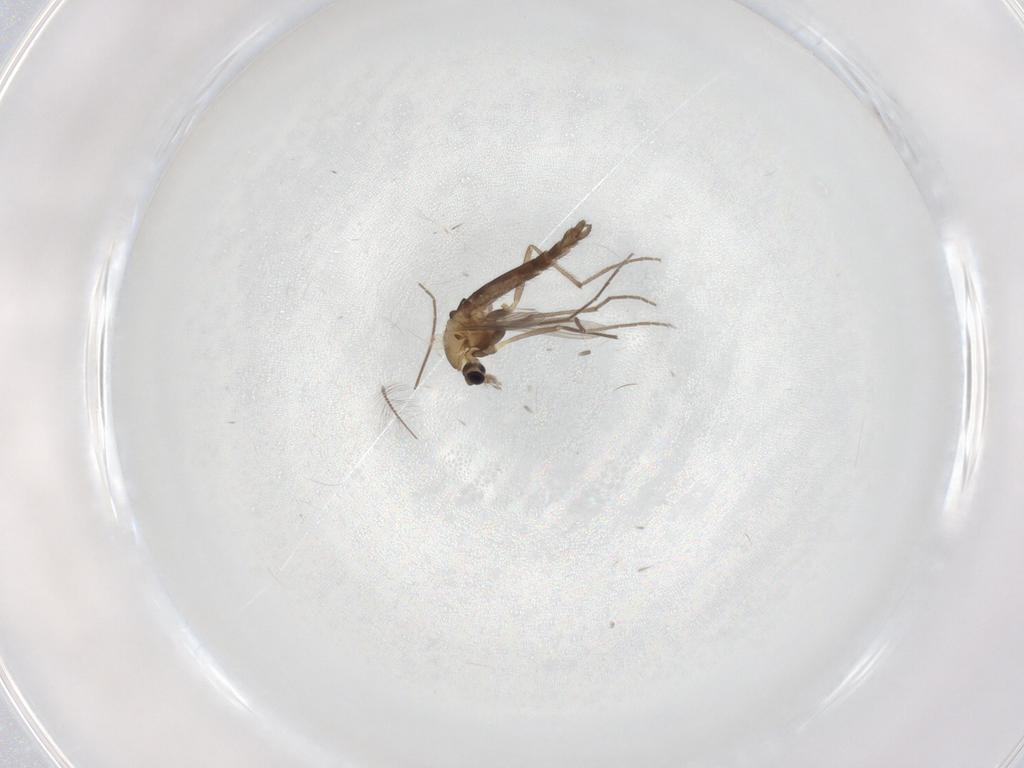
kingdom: Animalia
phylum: Arthropoda
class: Insecta
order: Diptera
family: Chironomidae
